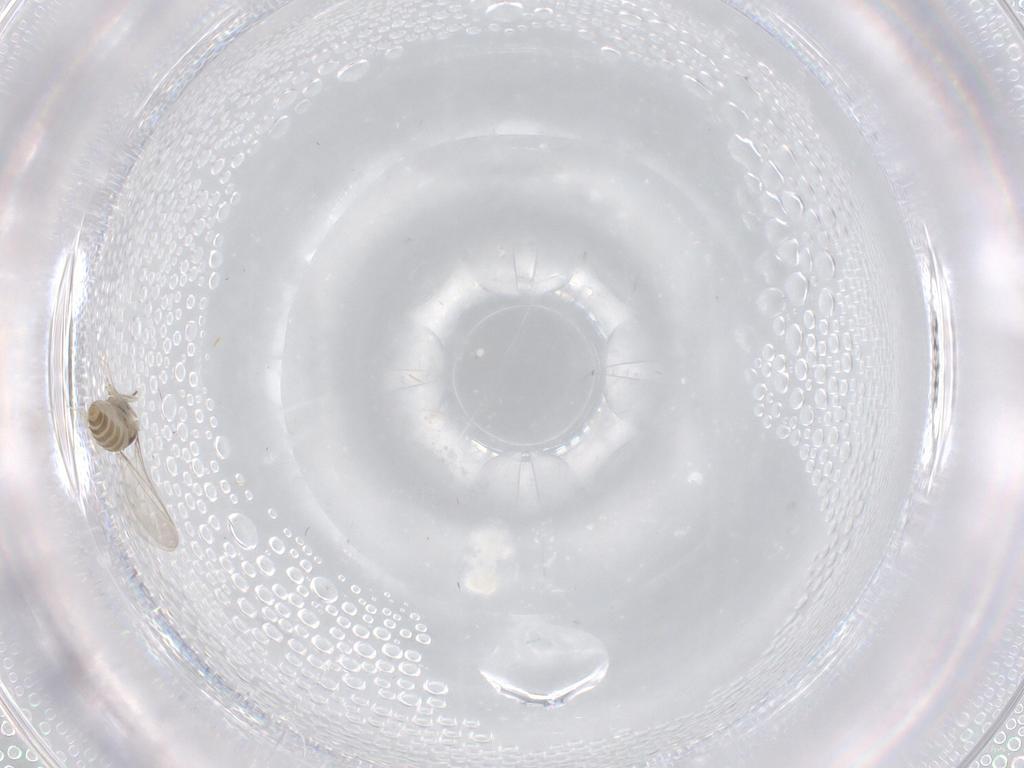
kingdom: Animalia
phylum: Arthropoda
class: Insecta
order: Diptera
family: Cecidomyiidae
